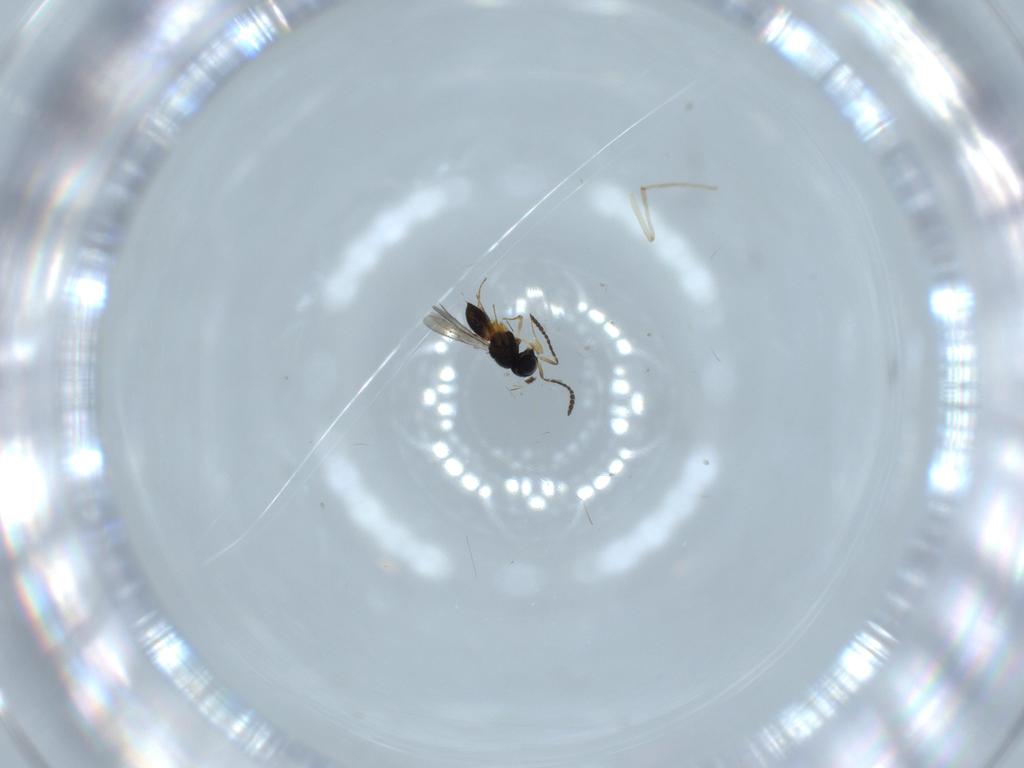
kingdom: Animalia
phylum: Arthropoda
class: Insecta
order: Hymenoptera
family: Scelionidae
